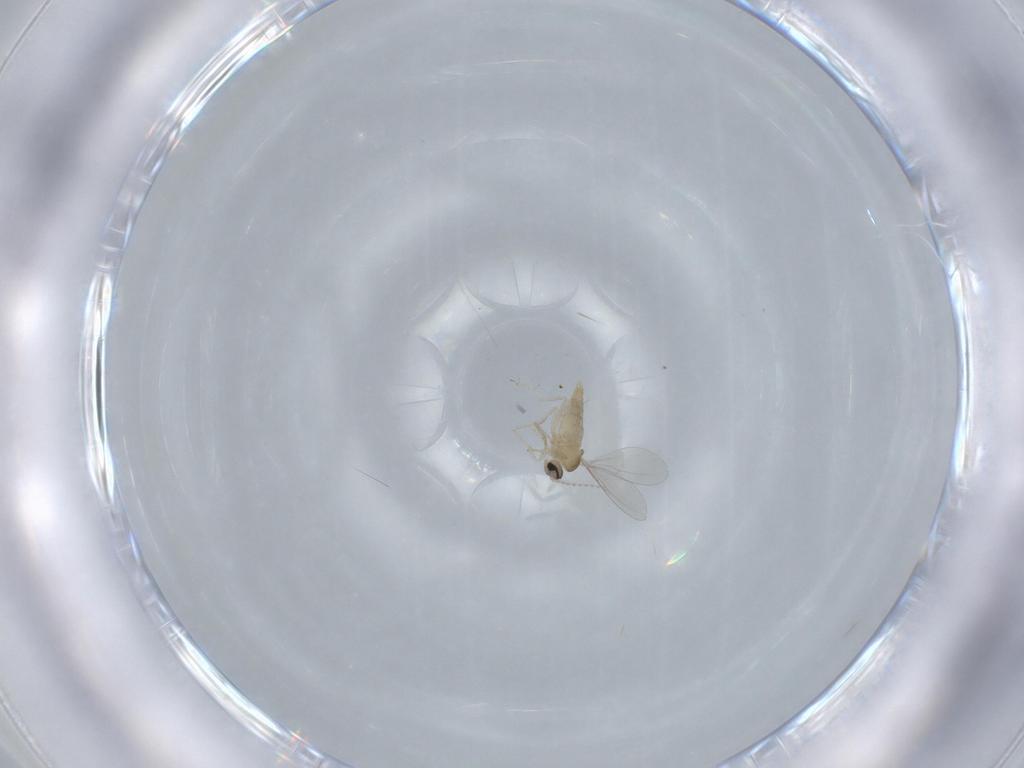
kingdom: Animalia
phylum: Arthropoda
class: Insecta
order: Diptera
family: Cecidomyiidae
